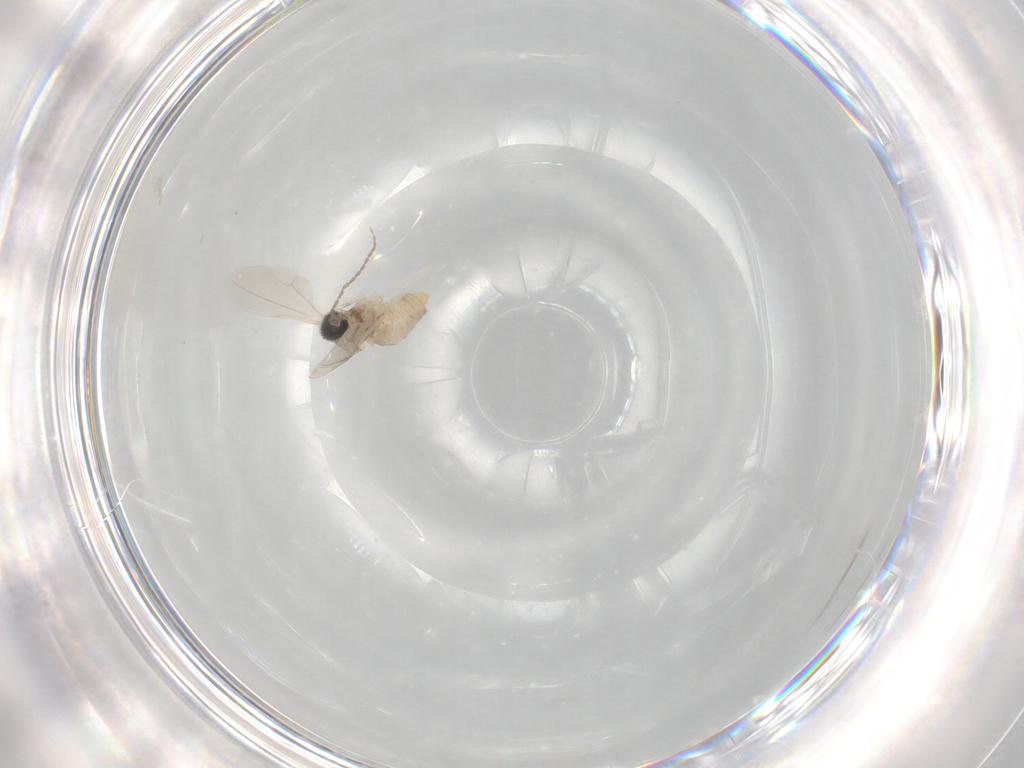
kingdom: Animalia
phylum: Arthropoda
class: Insecta
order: Diptera
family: Cecidomyiidae
